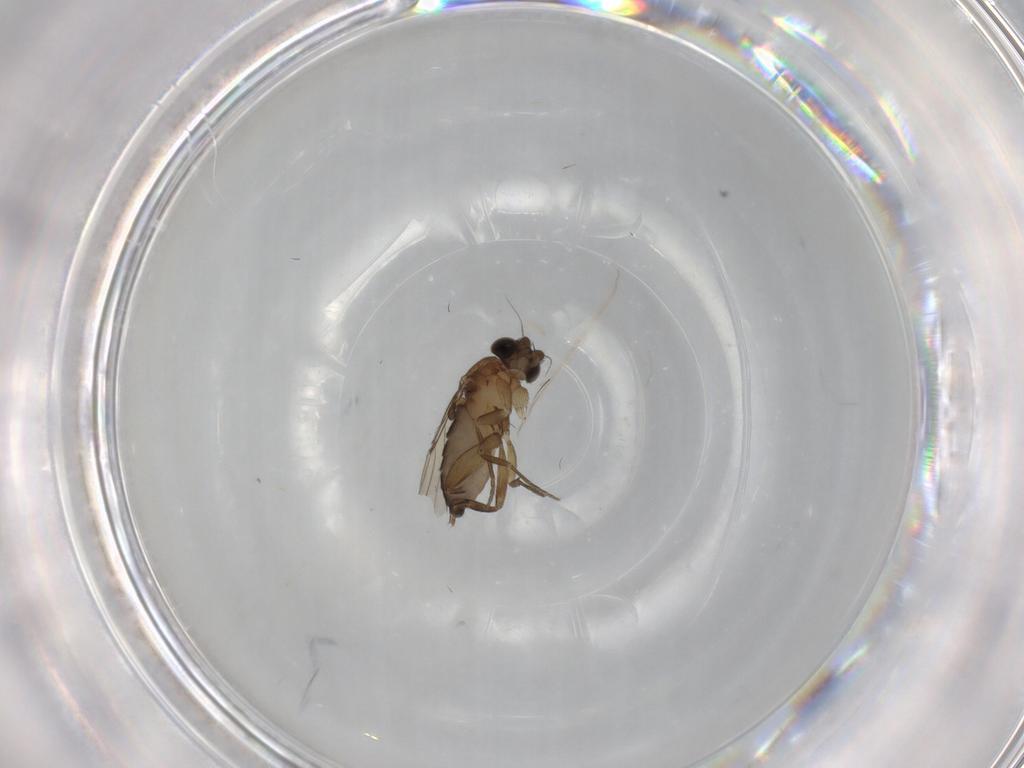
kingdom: Animalia
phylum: Arthropoda
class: Insecta
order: Diptera
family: Phoridae
